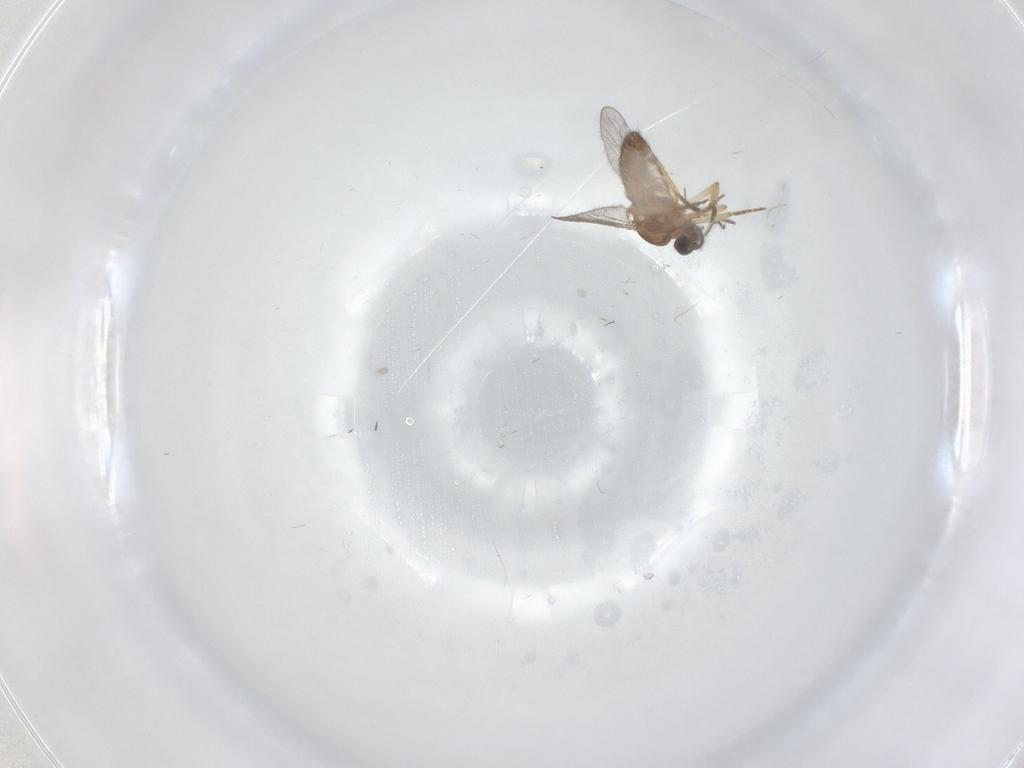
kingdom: Animalia
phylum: Arthropoda
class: Insecta
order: Diptera
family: Ceratopogonidae
